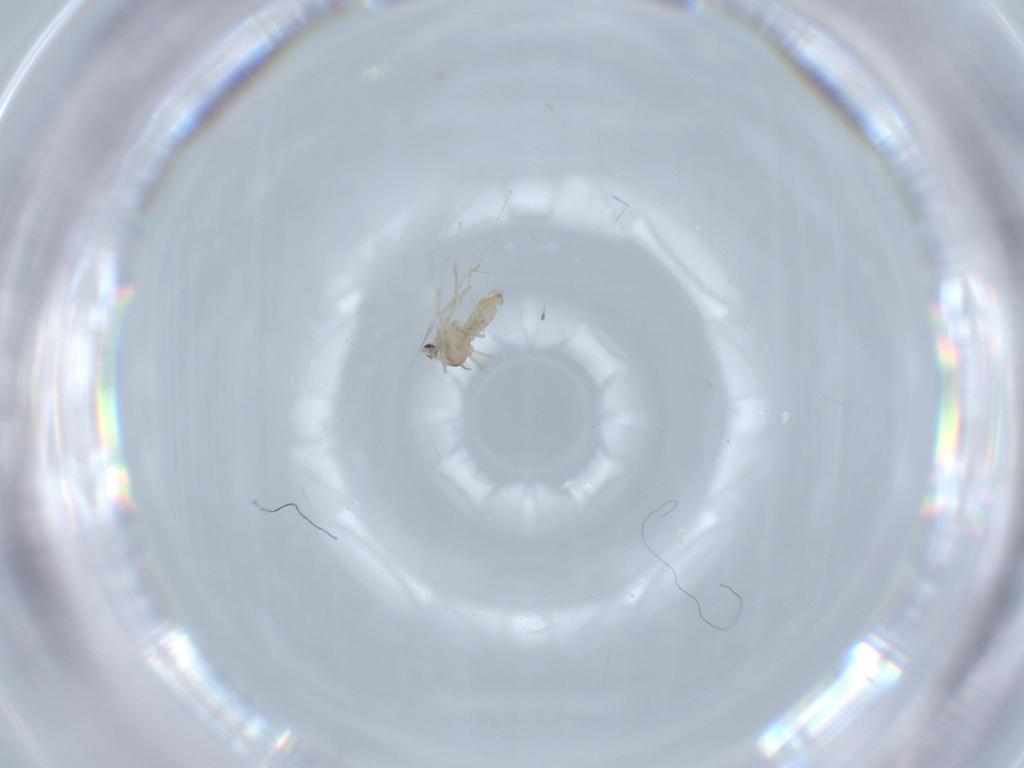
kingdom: Animalia
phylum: Arthropoda
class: Insecta
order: Diptera
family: Cecidomyiidae
